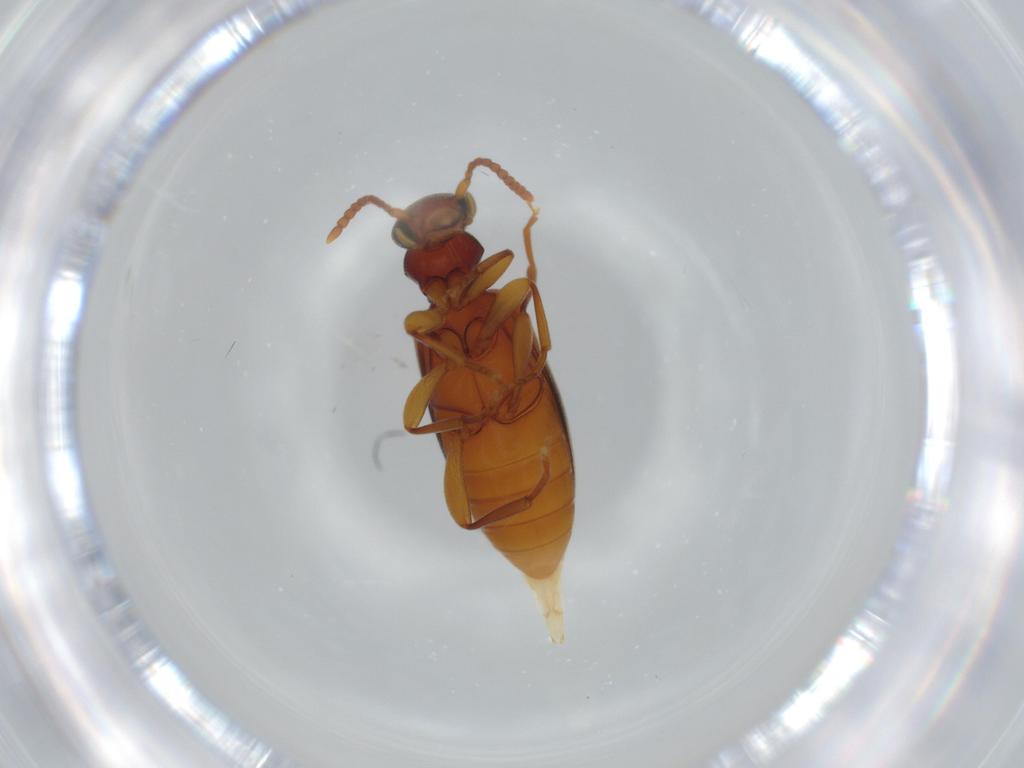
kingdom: Animalia
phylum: Arthropoda
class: Insecta
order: Coleoptera
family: Anthicidae
